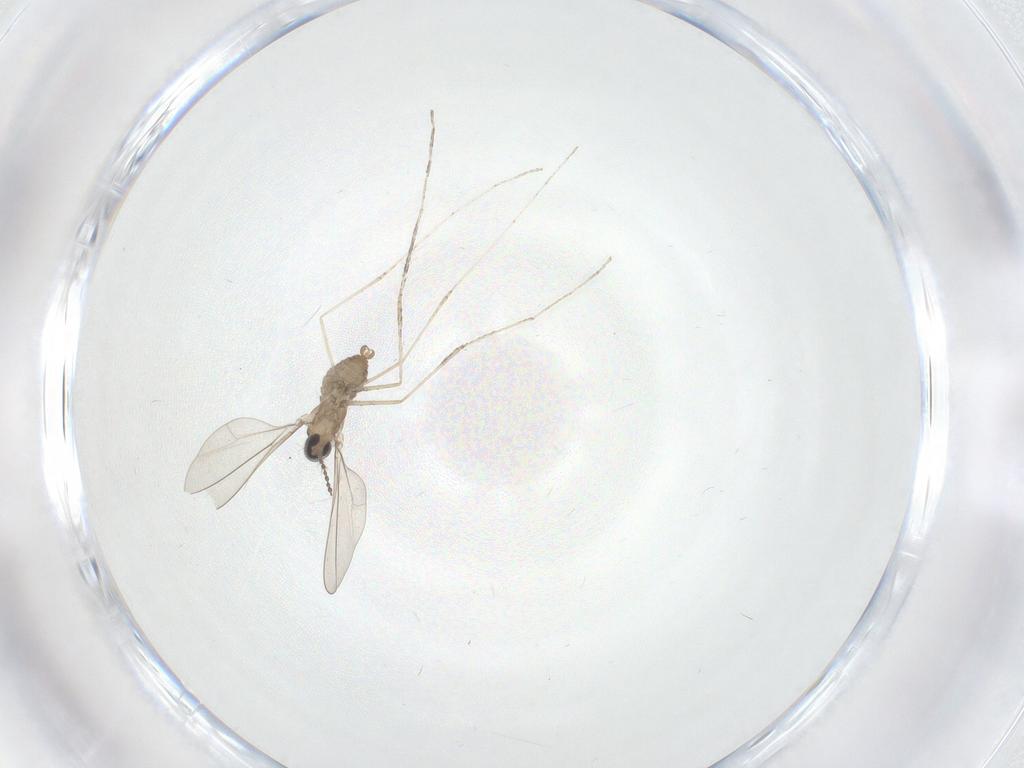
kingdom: Animalia
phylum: Arthropoda
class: Insecta
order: Diptera
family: Cecidomyiidae
